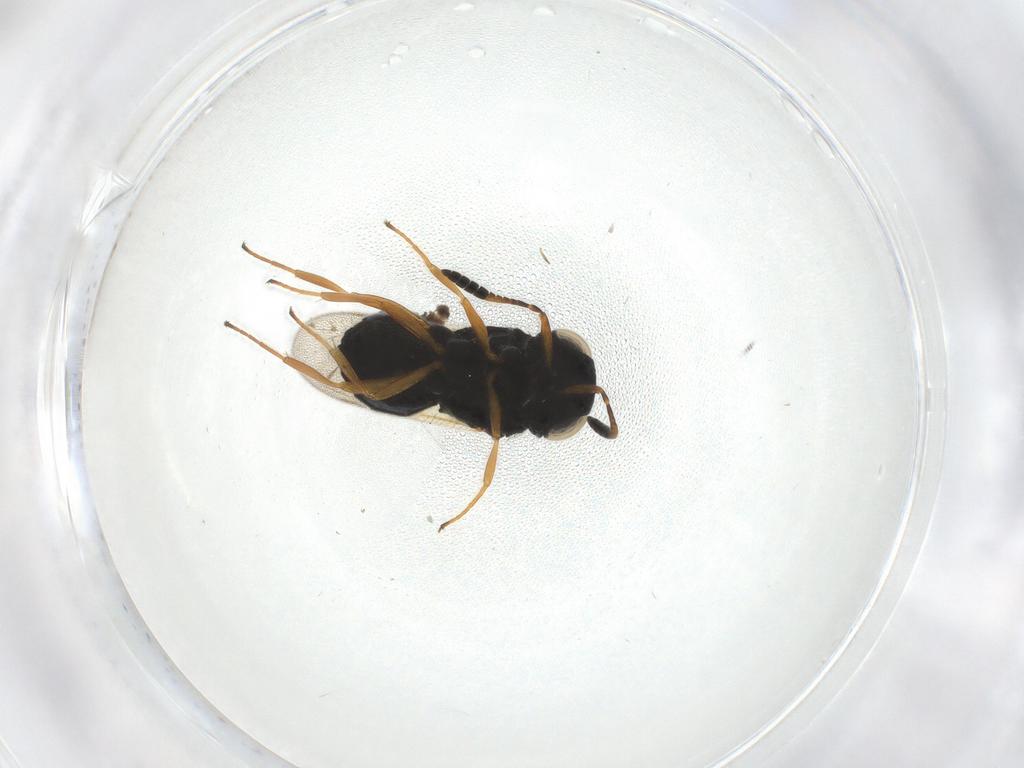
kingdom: Animalia
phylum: Arthropoda
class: Insecta
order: Hymenoptera
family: Scelionidae
